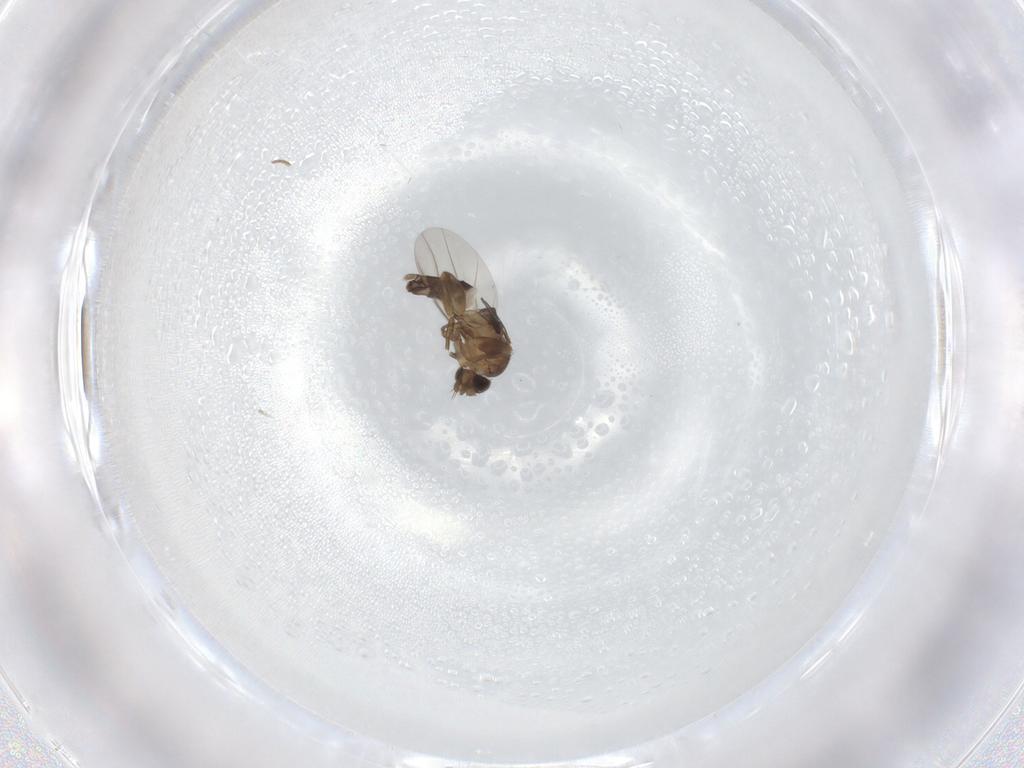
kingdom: Animalia
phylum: Arthropoda
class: Insecta
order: Diptera
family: Phoridae
